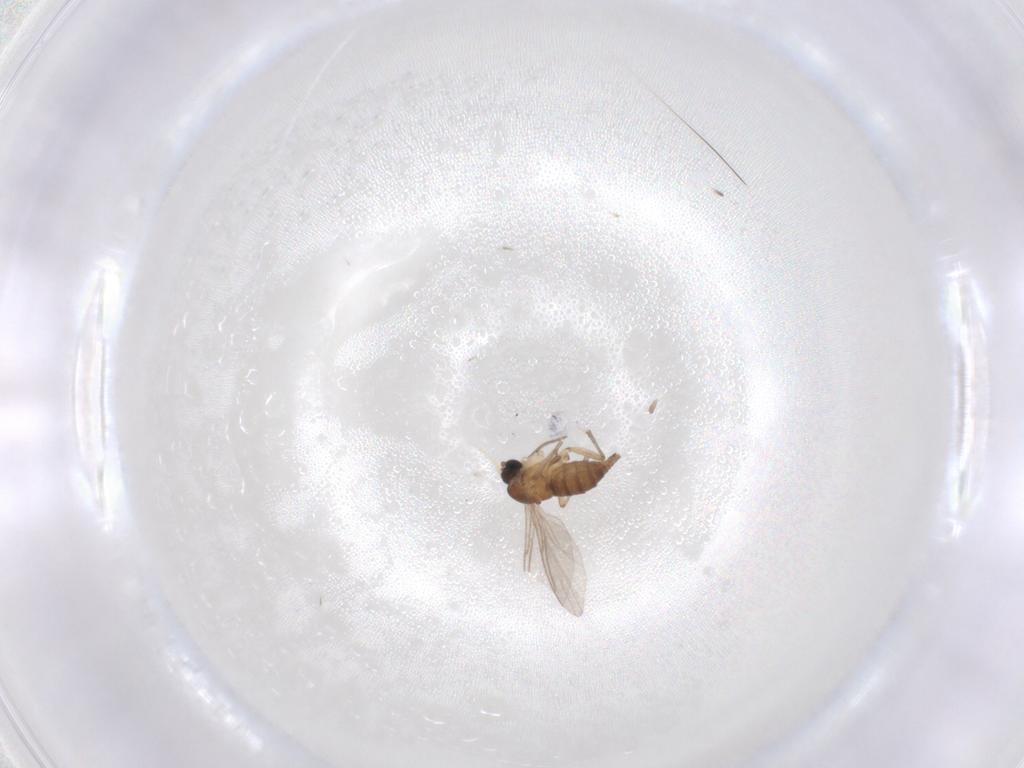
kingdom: Animalia
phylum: Arthropoda
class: Insecta
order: Diptera
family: Sciaridae
